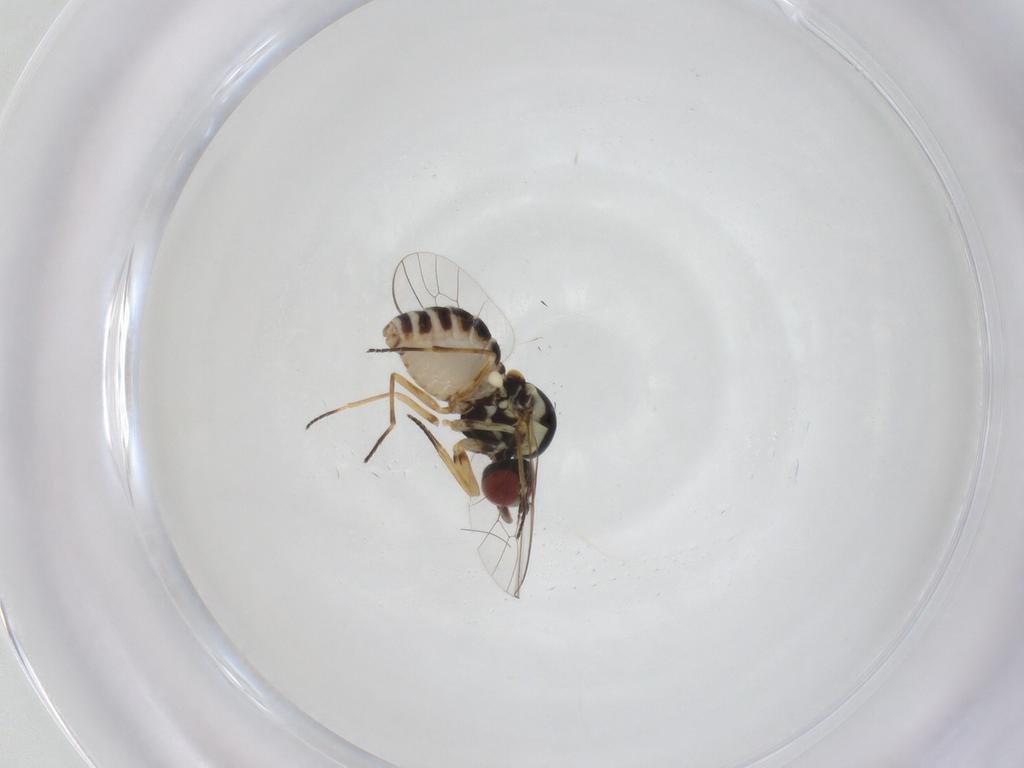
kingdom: Animalia
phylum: Arthropoda
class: Insecta
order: Diptera
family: Bombyliidae
